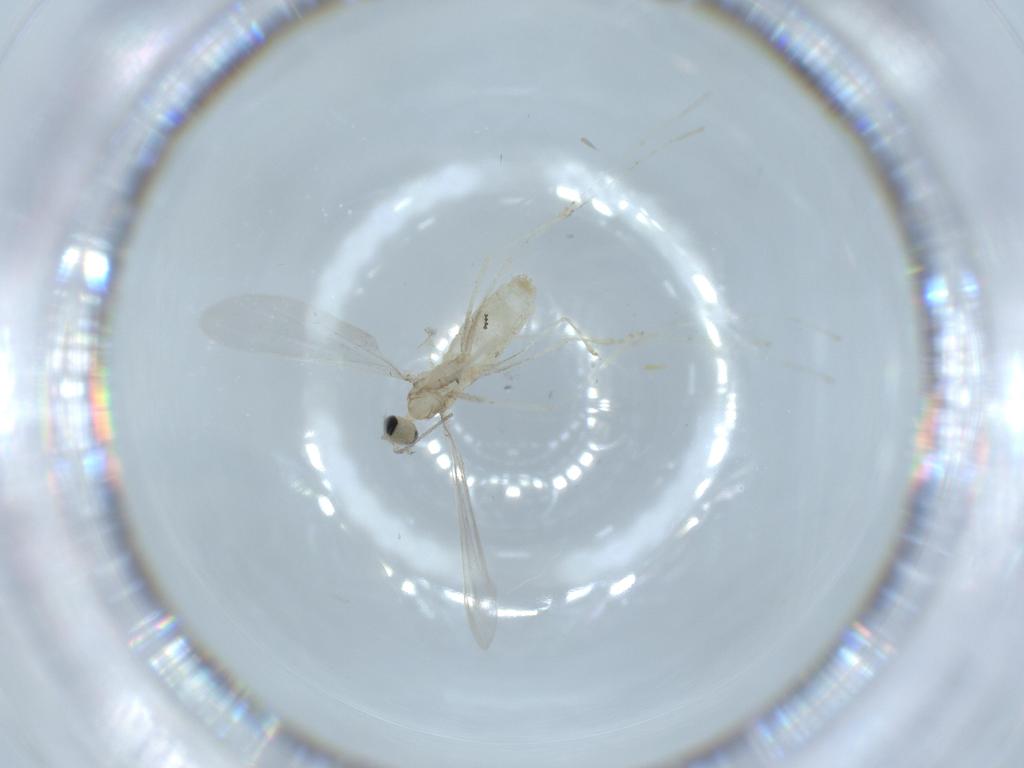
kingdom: Animalia
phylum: Arthropoda
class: Insecta
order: Diptera
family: Cecidomyiidae
